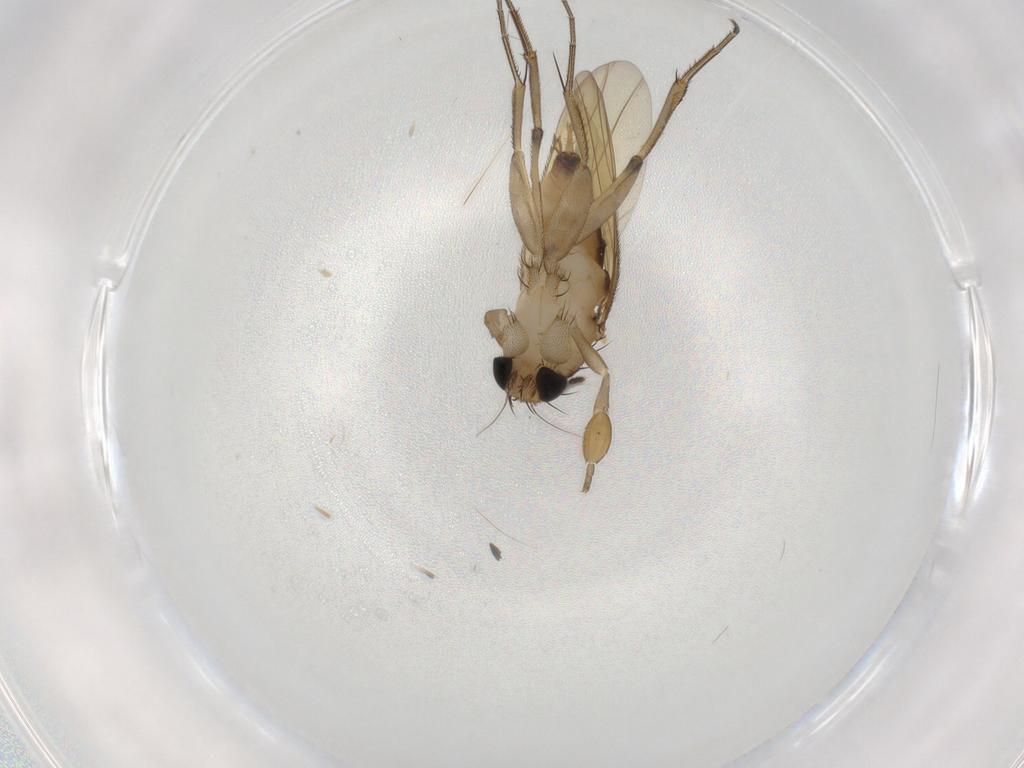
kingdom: Animalia
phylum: Arthropoda
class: Insecta
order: Diptera
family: Phoridae
